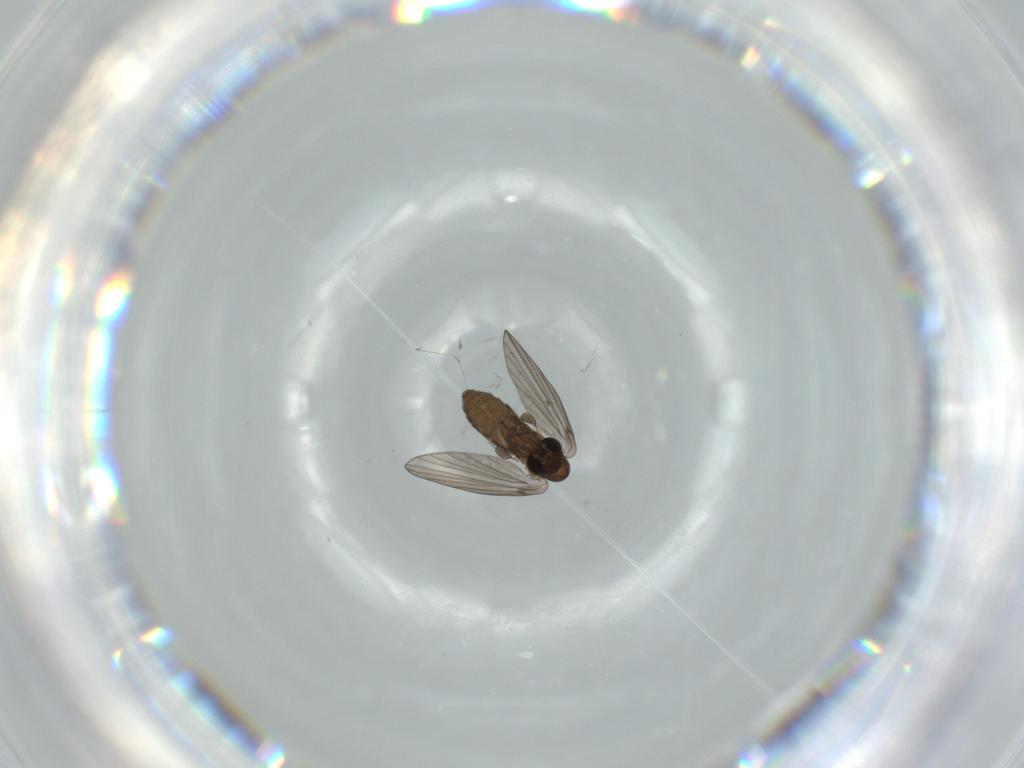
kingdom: Animalia
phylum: Arthropoda
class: Insecta
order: Diptera
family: Psychodidae
